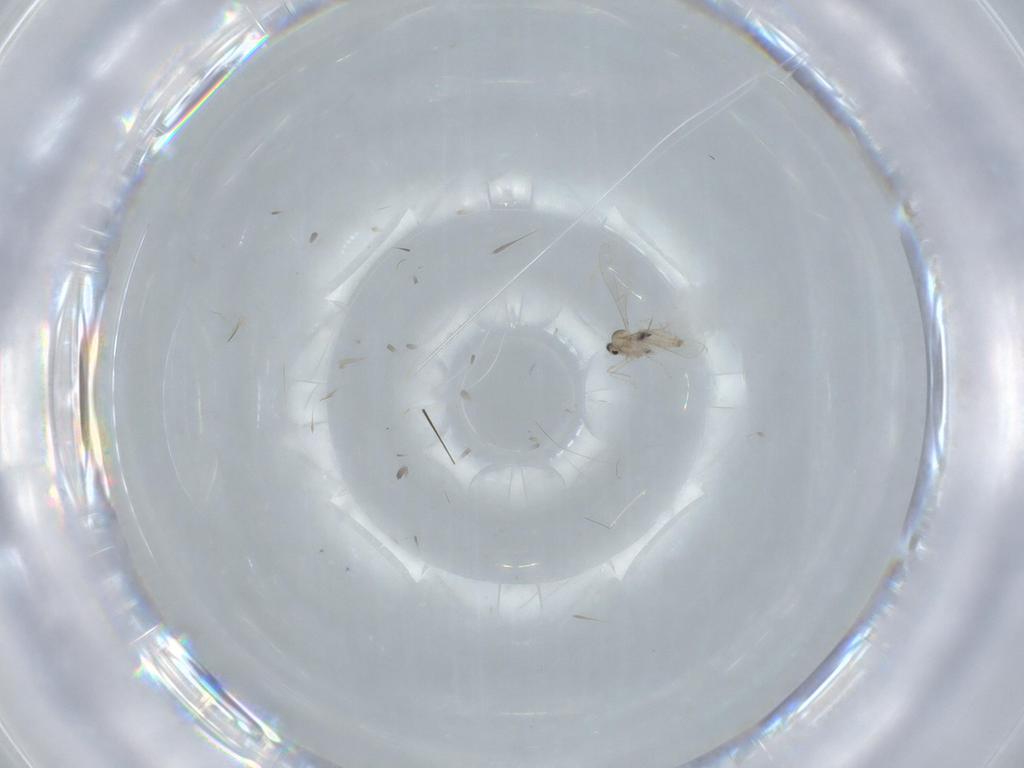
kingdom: Animalia
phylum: Arthropoda
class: Insecta
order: Diptera
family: Cecidomyiidae
